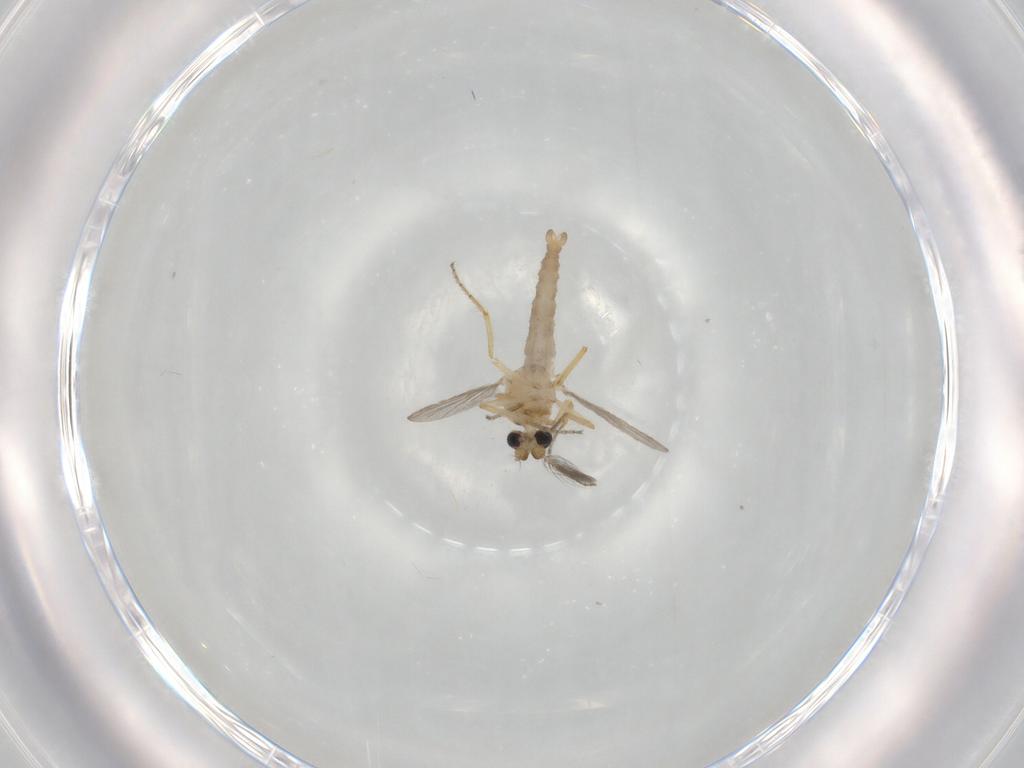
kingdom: Animalia
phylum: Arthropoda
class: Insecta
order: Diptera
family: Ceratopogonidae
